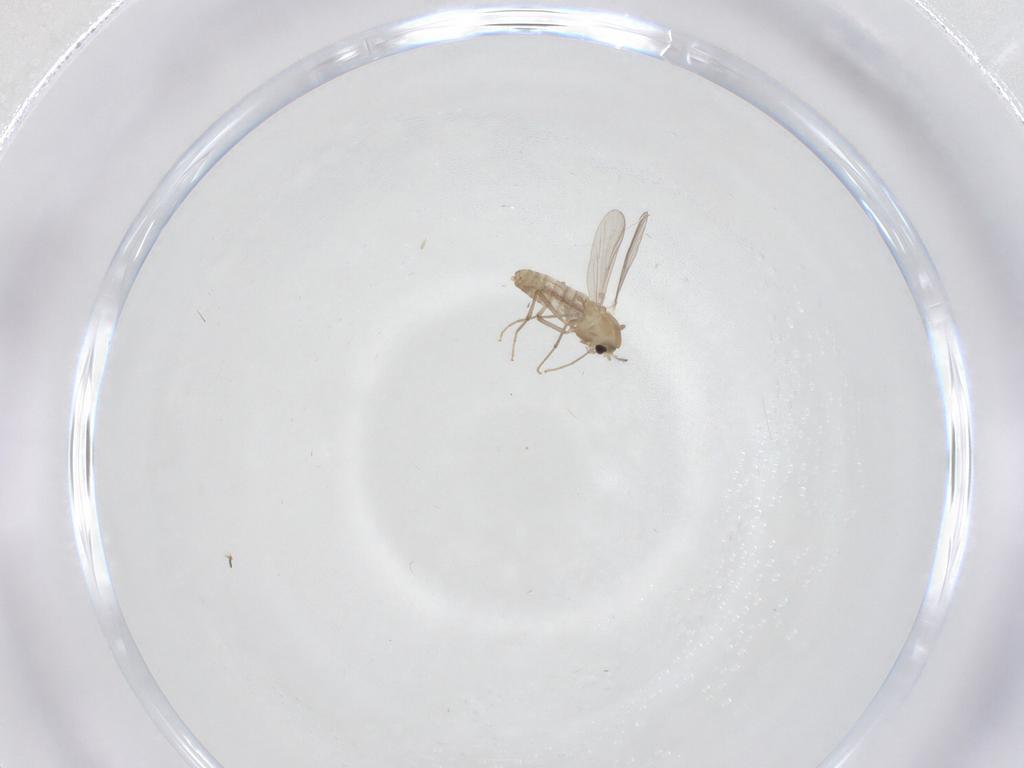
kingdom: Animalia
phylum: Arthropoda
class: Insecta
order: Diptera
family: Chironomidae
